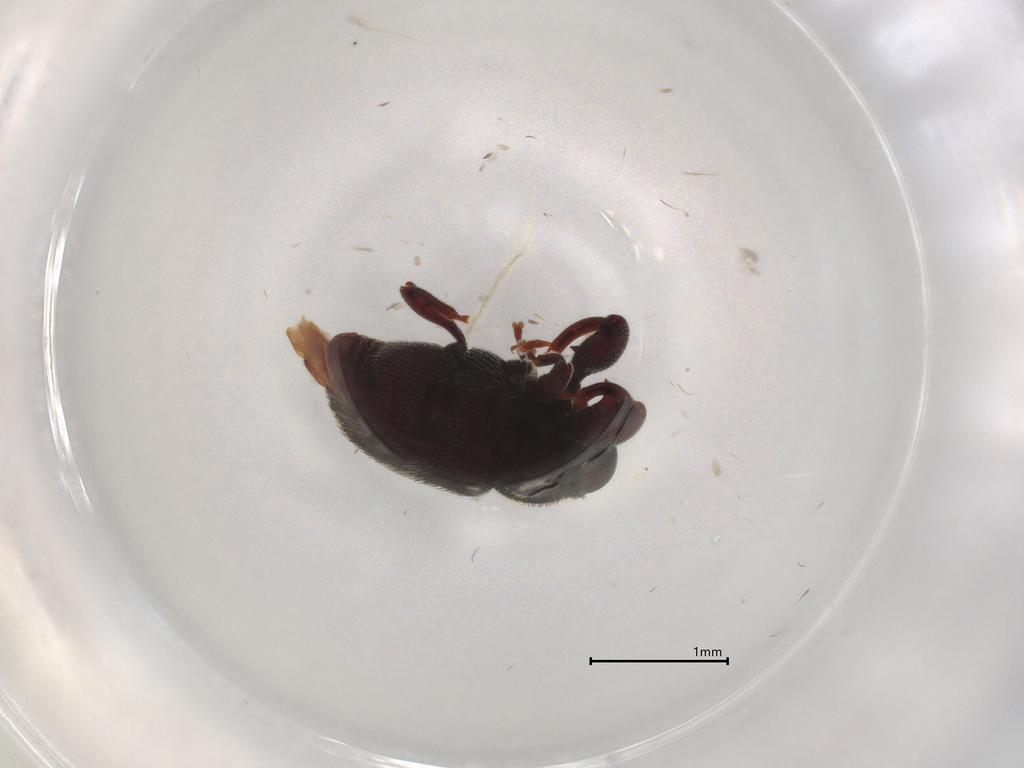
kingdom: Animalia
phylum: Arthropoda
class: Insecta
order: Coleoptera
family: Curculionidae
